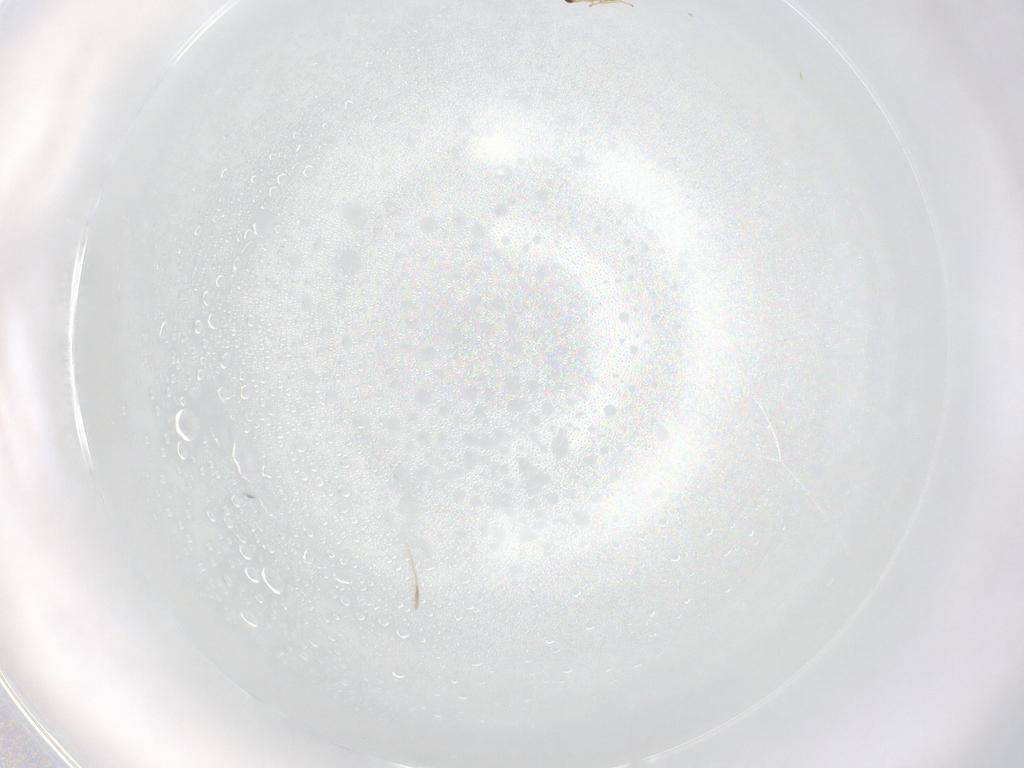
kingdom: Animalia
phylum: Arthropoda
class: Insecta
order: Hymenoptera
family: Mymaridae
